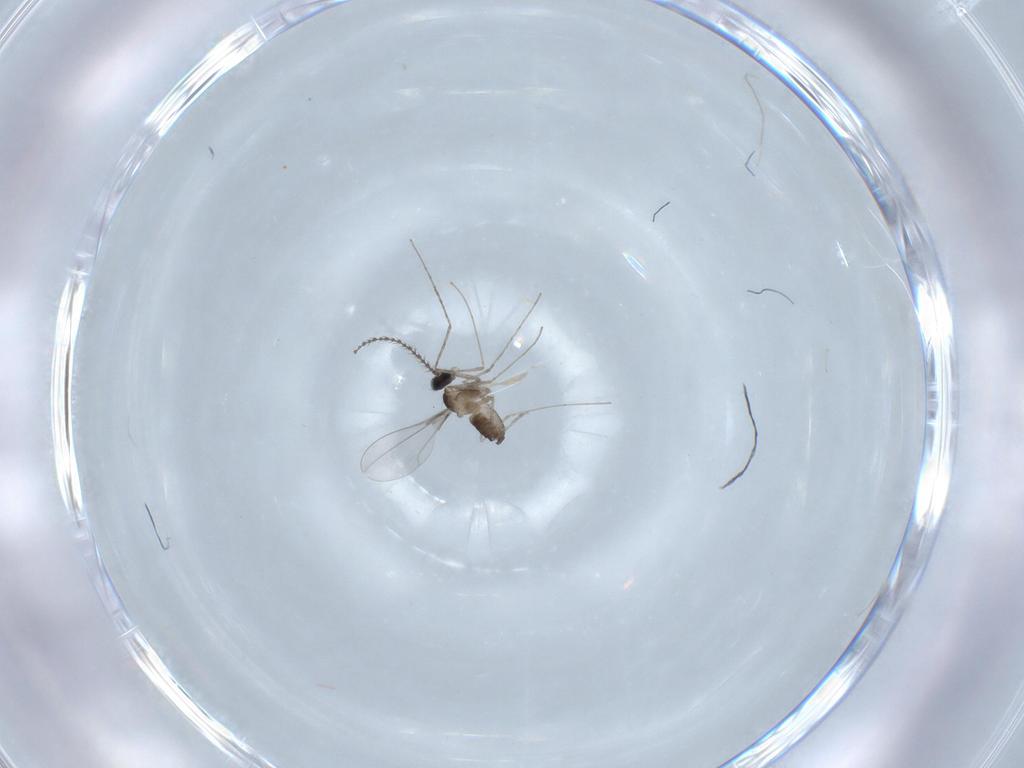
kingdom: Animalia
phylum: Arthropoda
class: Insecta
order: Diptera
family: Cecidomyiidae
